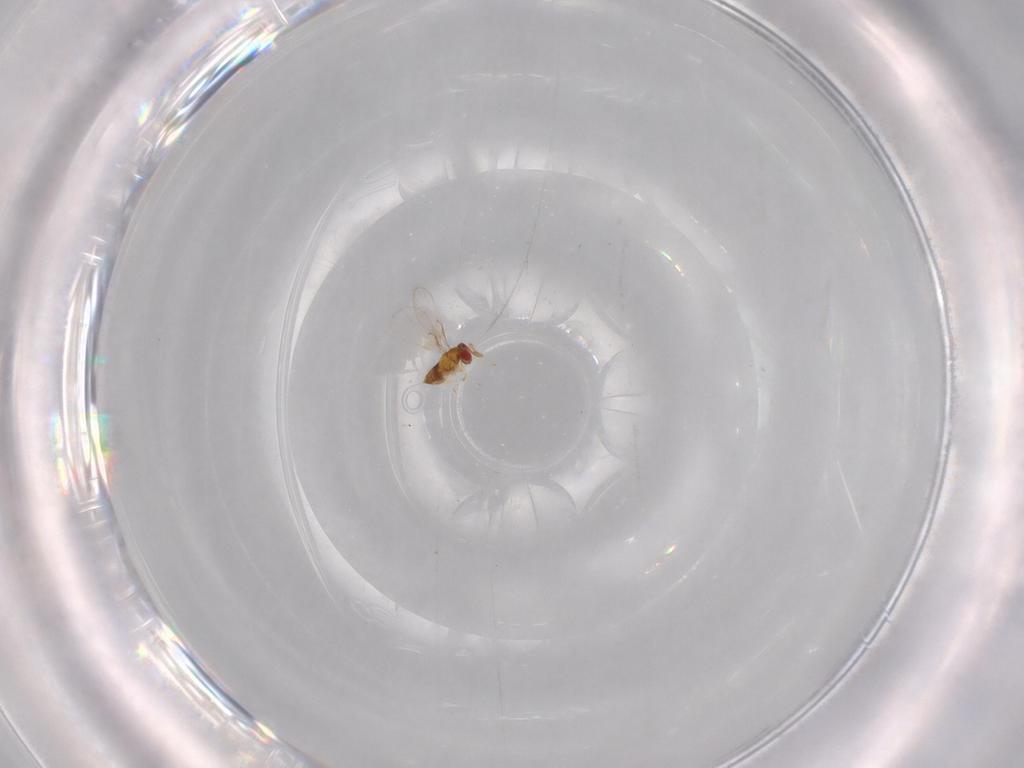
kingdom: Animalia
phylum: Arthropoda
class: Insecta
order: Hymenoptera
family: Trichogrammatidae
